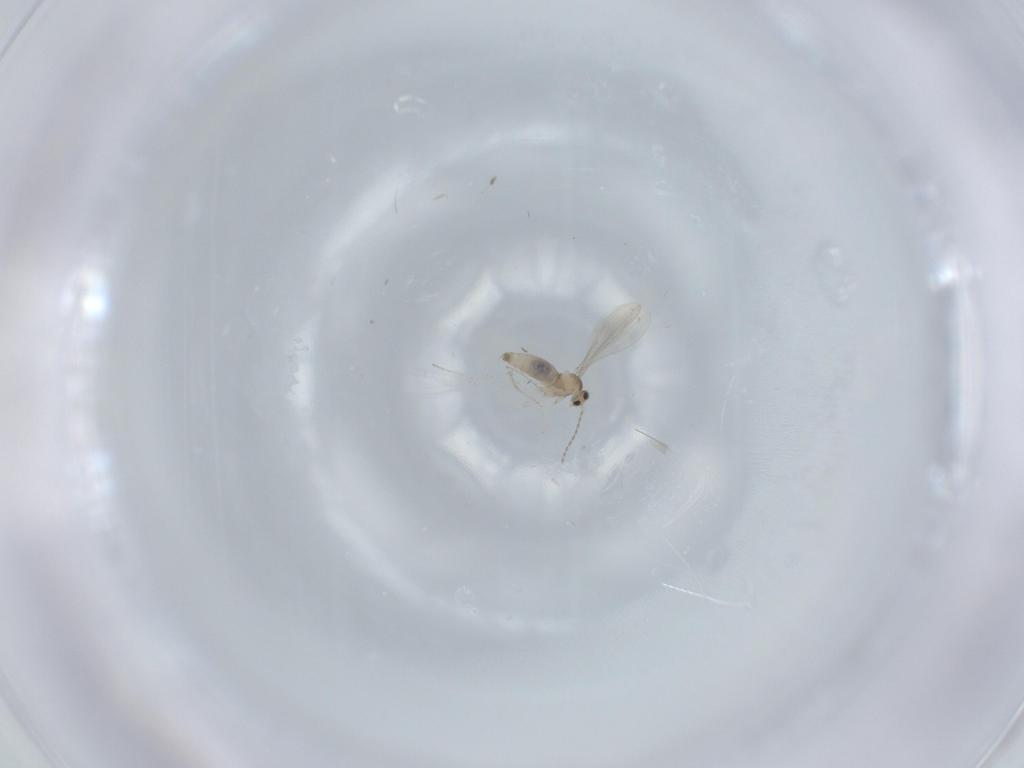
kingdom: Animalia
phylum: Arthropoda
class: Insecta
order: Diptera
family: Cecidomyiidae
